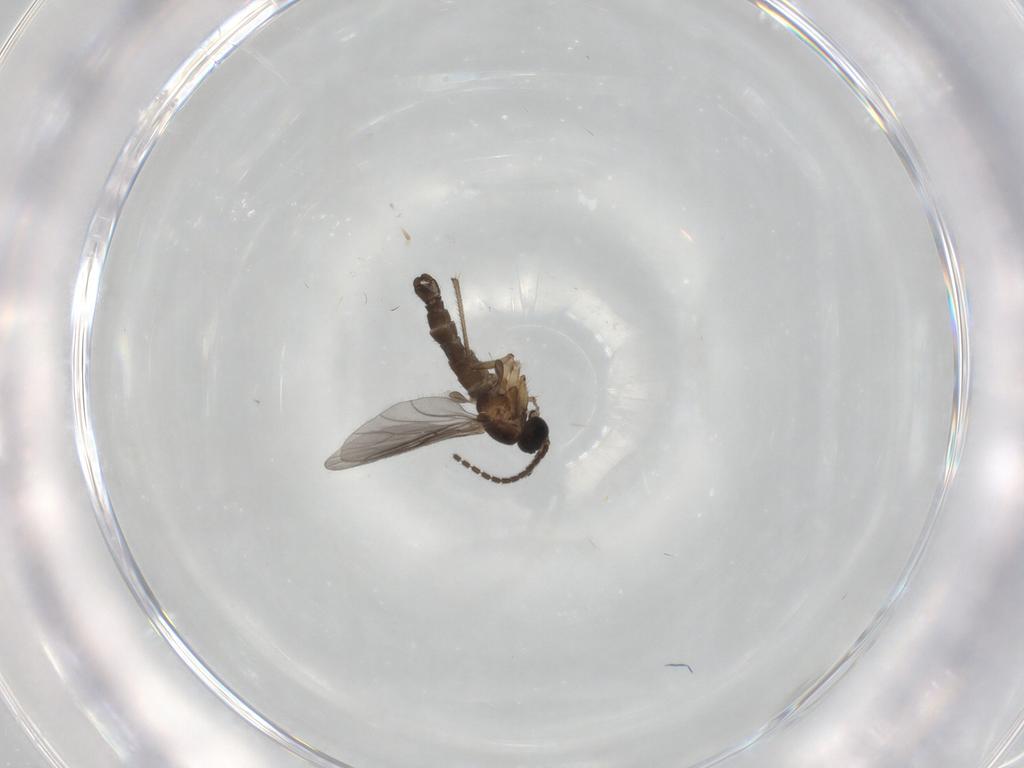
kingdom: Animalia
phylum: Arthropoda
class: Insecta
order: Diptera
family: Sciaridae
